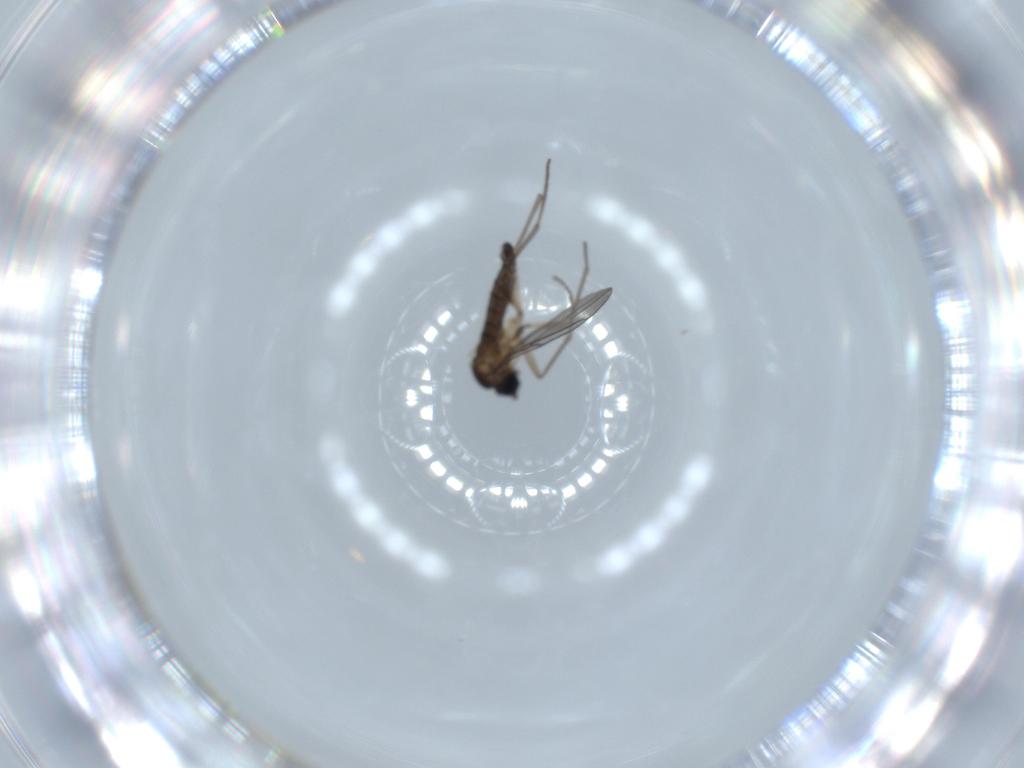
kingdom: Animalia
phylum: Arthropoda
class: Insecta
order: Diptera
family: Sciaridae
